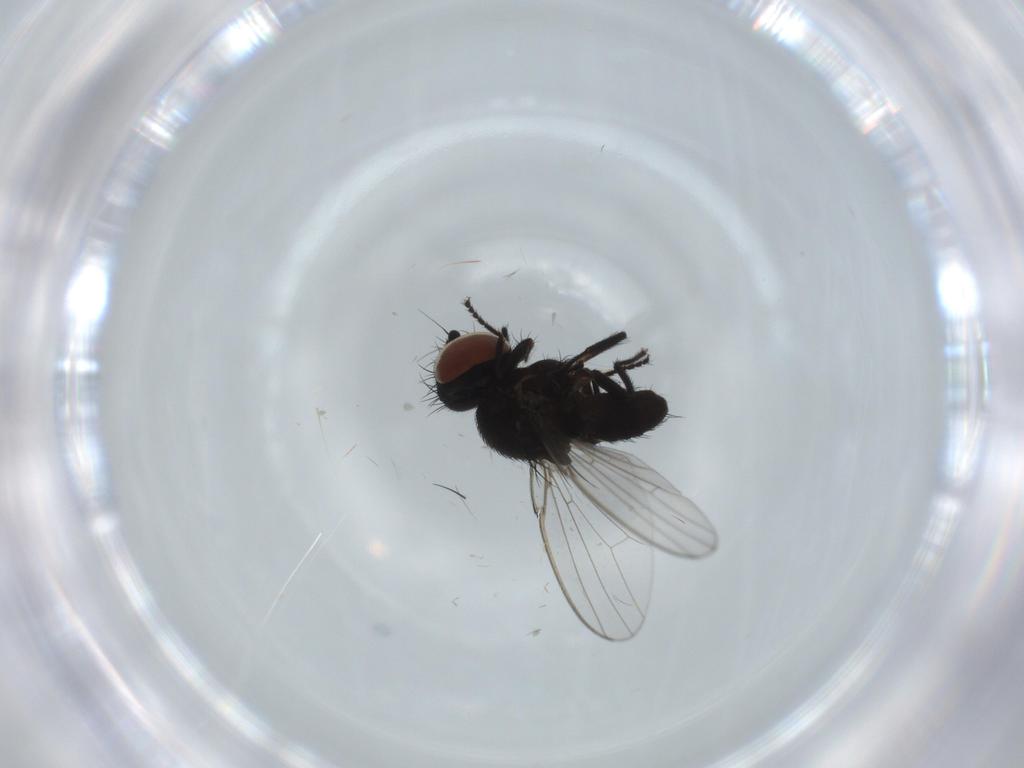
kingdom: Animalia
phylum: Arthropoda
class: Insecta
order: Diptera
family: Milichiidae
